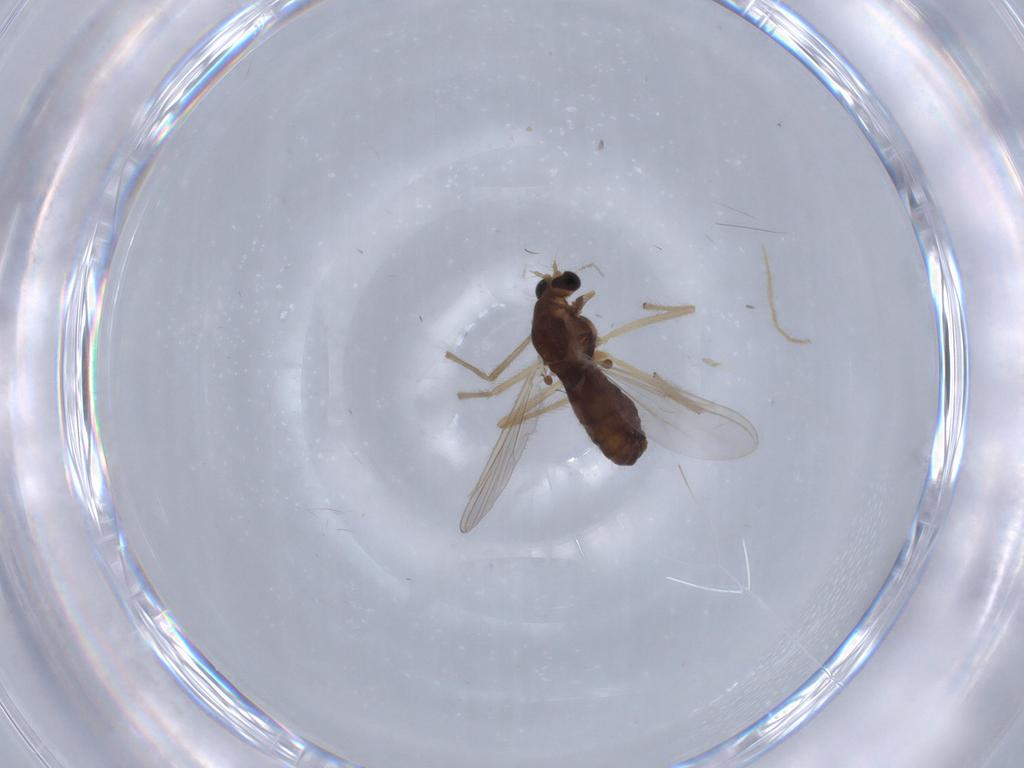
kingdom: Animalia
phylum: Arthropoda
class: Insecta
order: Diptera
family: Chironomidae
